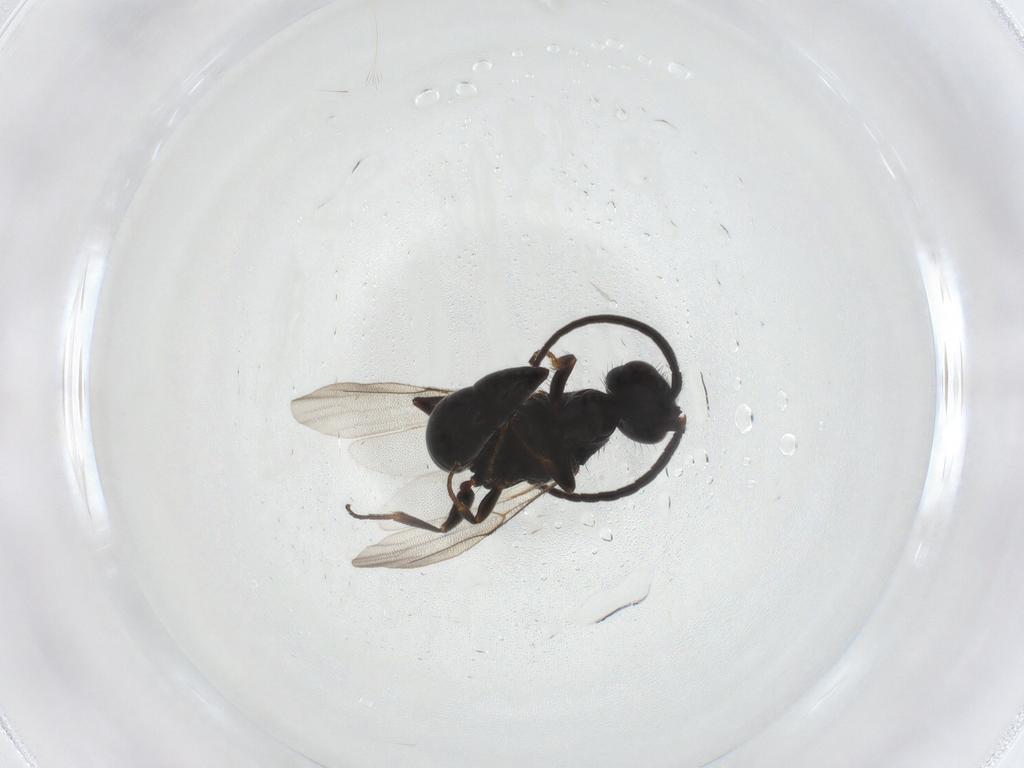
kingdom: Animalia
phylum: Arthropoda
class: Insecta
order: Hymenoptera
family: Bethylidae
